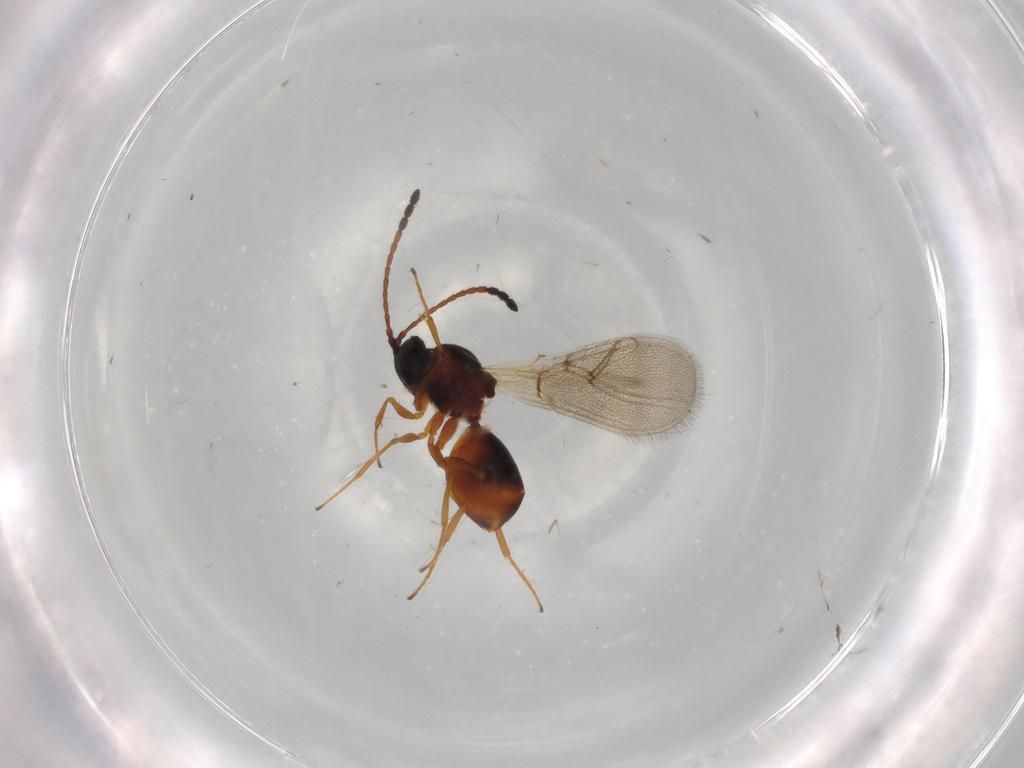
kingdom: Animalia
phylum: Arthropoda
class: Insecta
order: Hymenoptera
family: Figitidae
